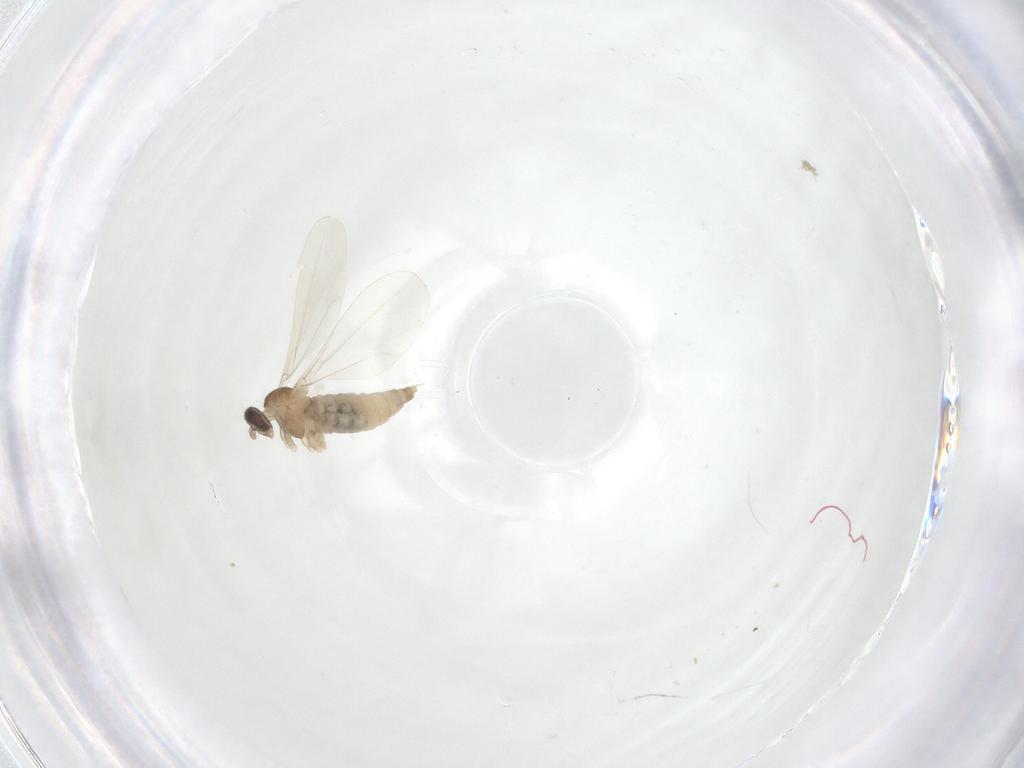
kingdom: Animalia
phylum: Arthropoda
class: Insecta
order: Diptera
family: Cecidomyiidae
